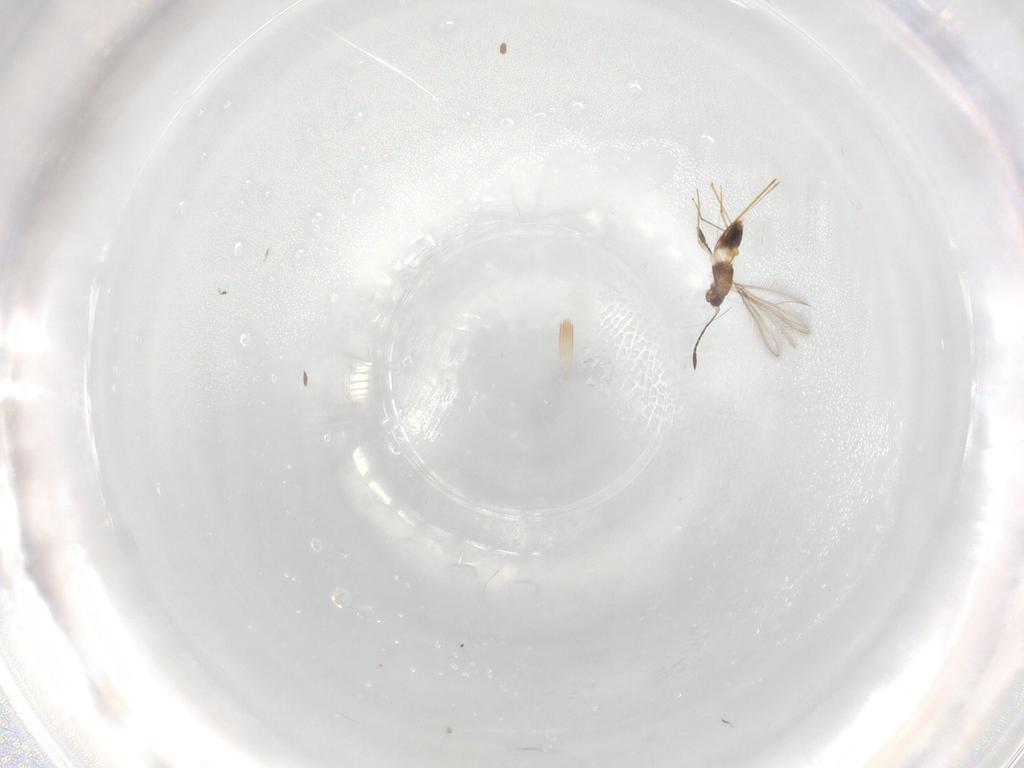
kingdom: Animalia
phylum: Arthropoda
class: Insecta
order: Hymenoptera
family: Mymaridae
